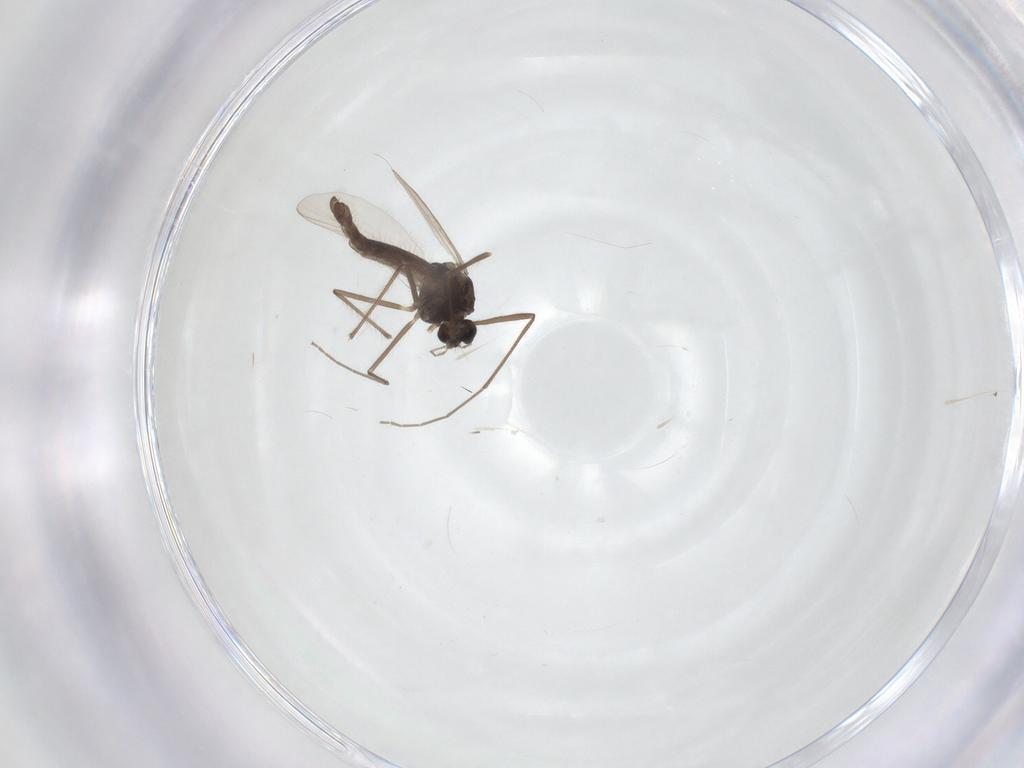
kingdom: Animalia
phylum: Arthropoda
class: Insecta
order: Diptera
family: Chironomidae
